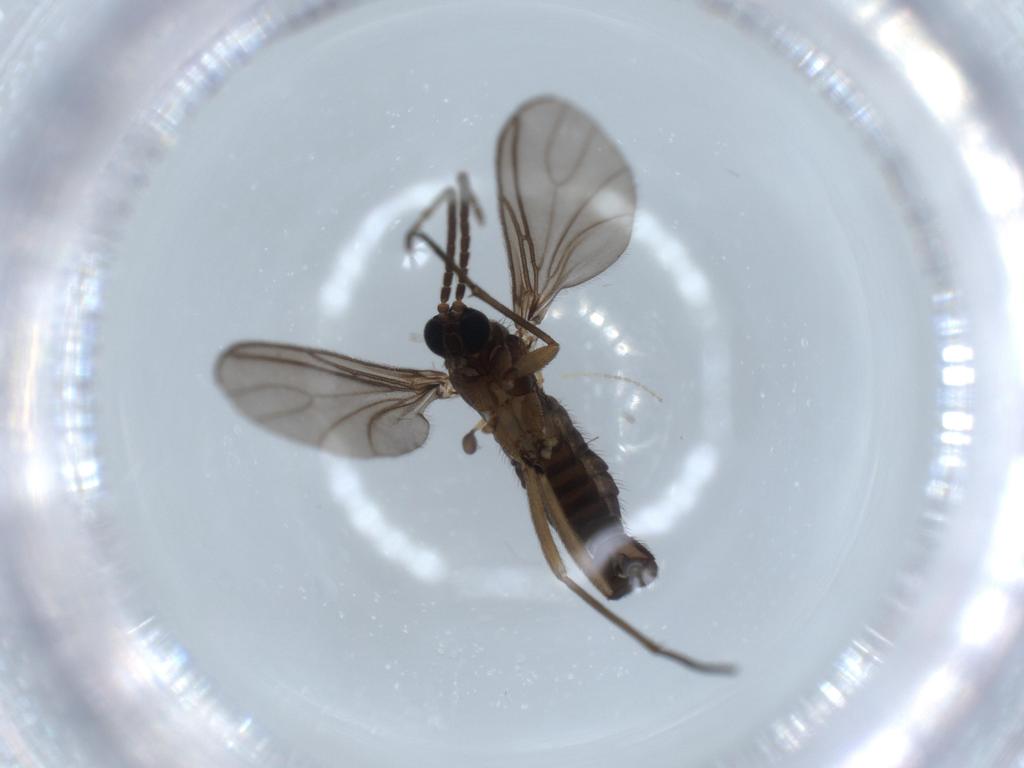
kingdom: Animalia
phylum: Arthropoda
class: Insecta
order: Diptera
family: Sciaridae
